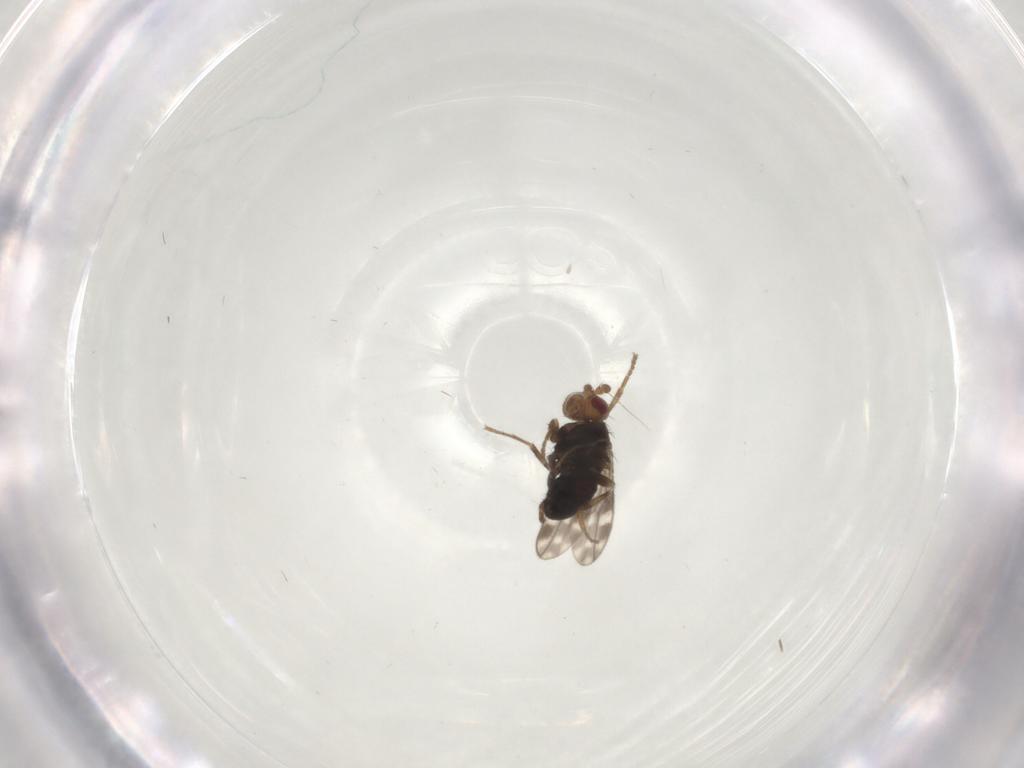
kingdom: Animalia
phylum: Arthropoda
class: Insecta
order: Diptera
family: Sphaeroceridae
